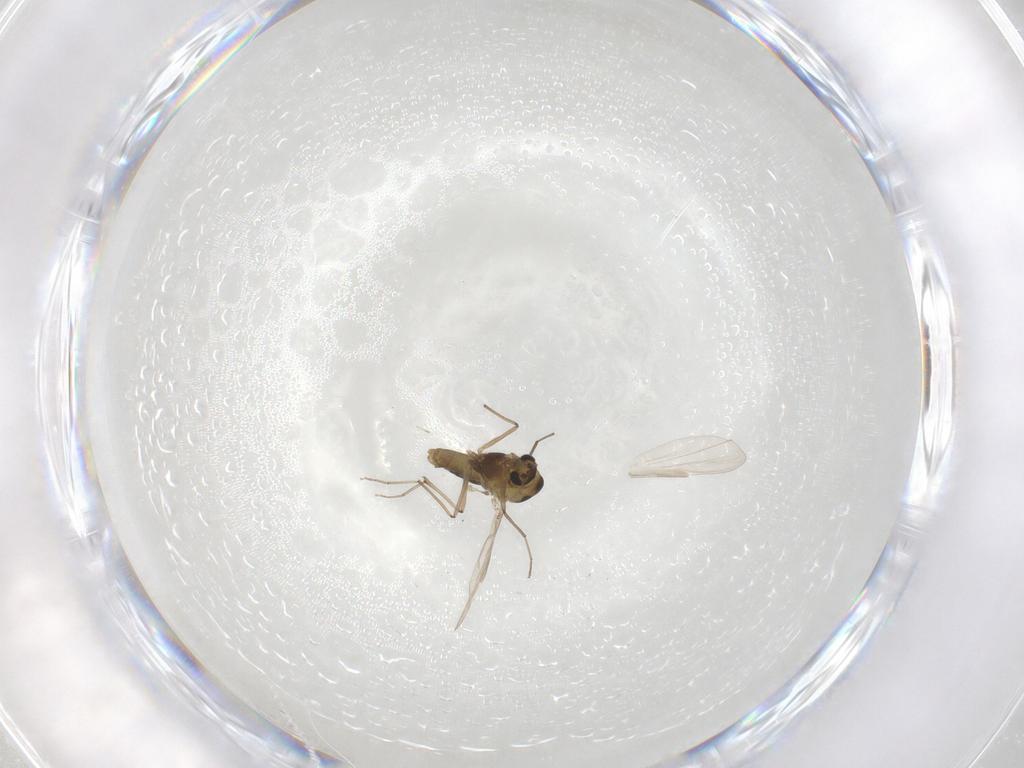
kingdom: Animalia
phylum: Arthropoda
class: Insecta
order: Diptera
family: Chironomidae
